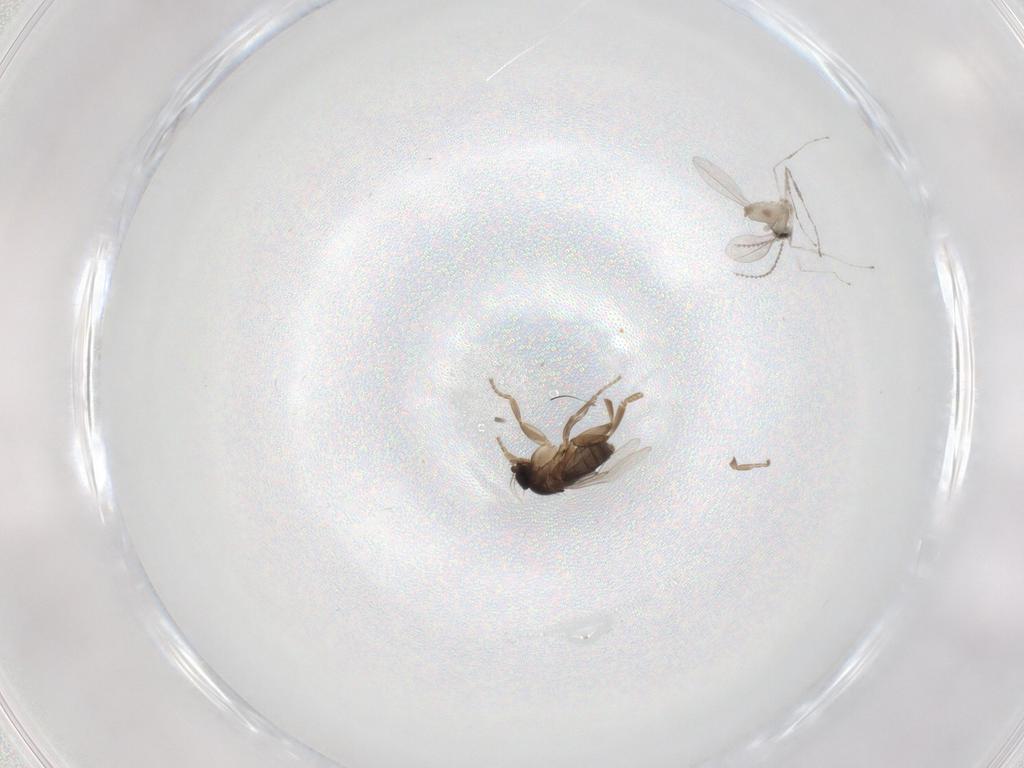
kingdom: Animalia
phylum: Arthropoda
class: Insecta
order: Diptera
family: Cecidomyiidae
